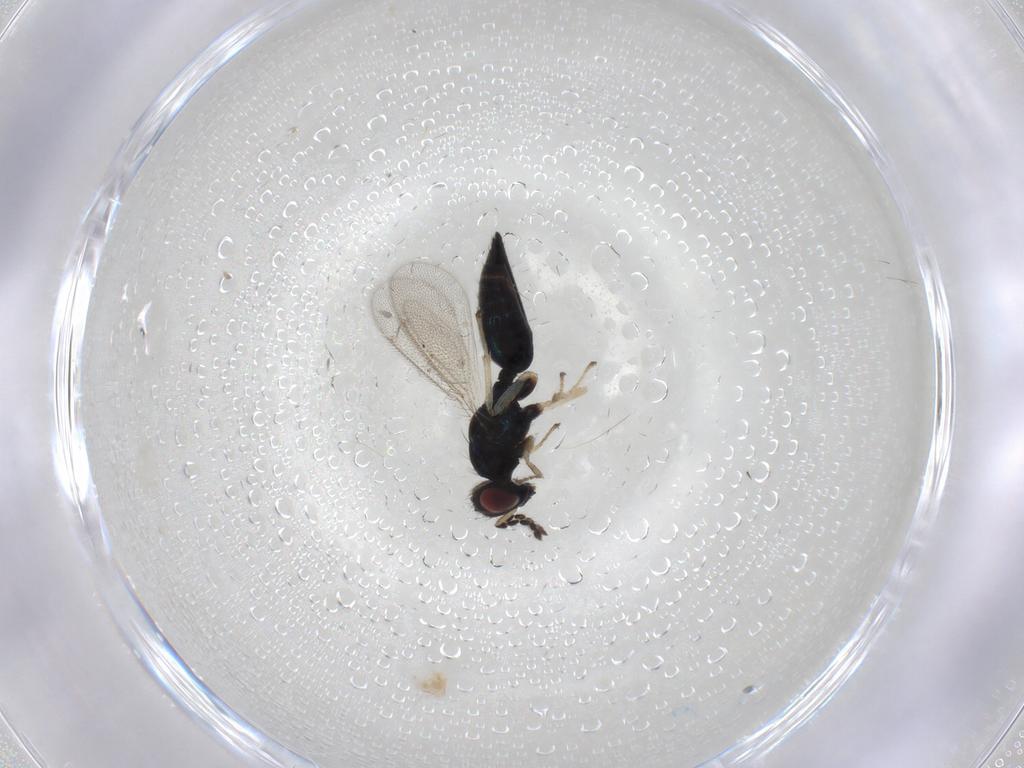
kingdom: Animalia
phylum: Arthropoda
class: Insecta
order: Hymenoptera
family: Eulophidae
